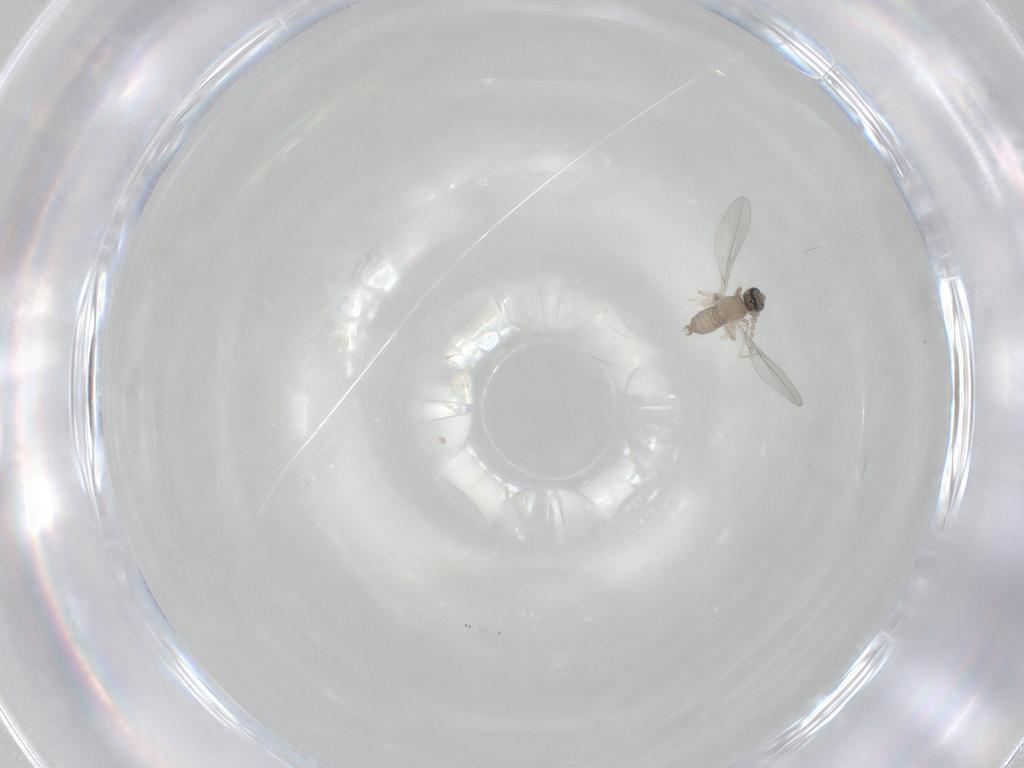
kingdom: Animalia
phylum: Arthropoda
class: Insecta
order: Diptera
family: Cecidomyiidae
